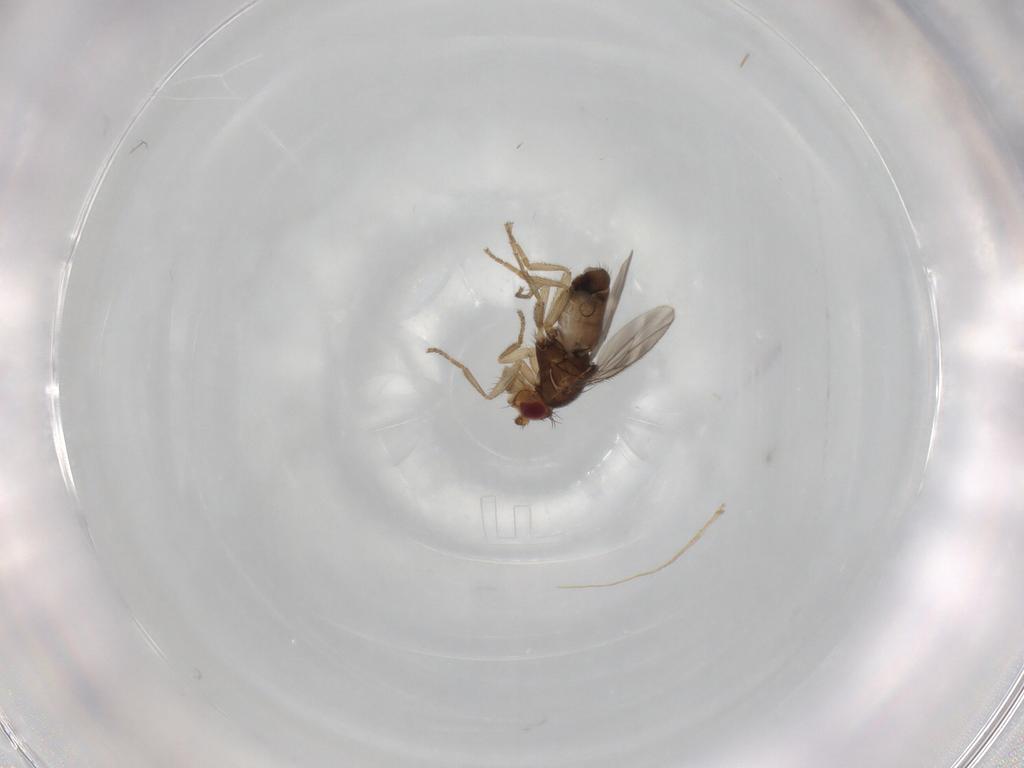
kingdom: Animalia
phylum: Arthropoda
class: Insecta
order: Diptera
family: Sphaeroceridae
